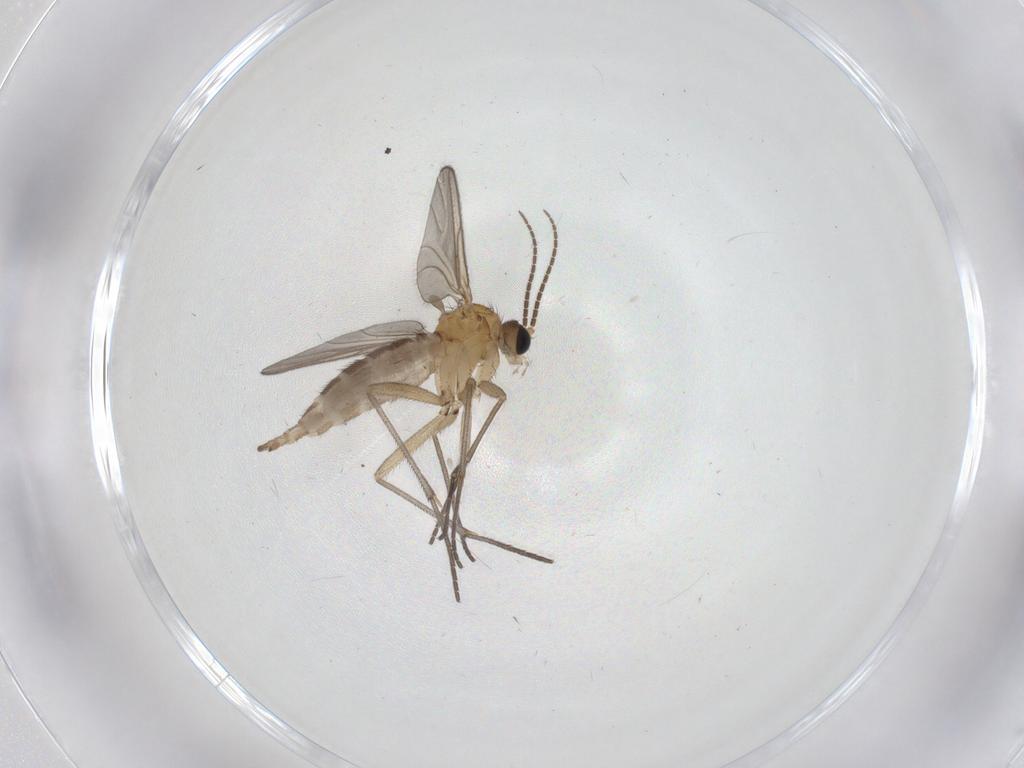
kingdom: Animalia
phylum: Arthropoda
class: Insecta
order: Diptera
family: Sciaridae
